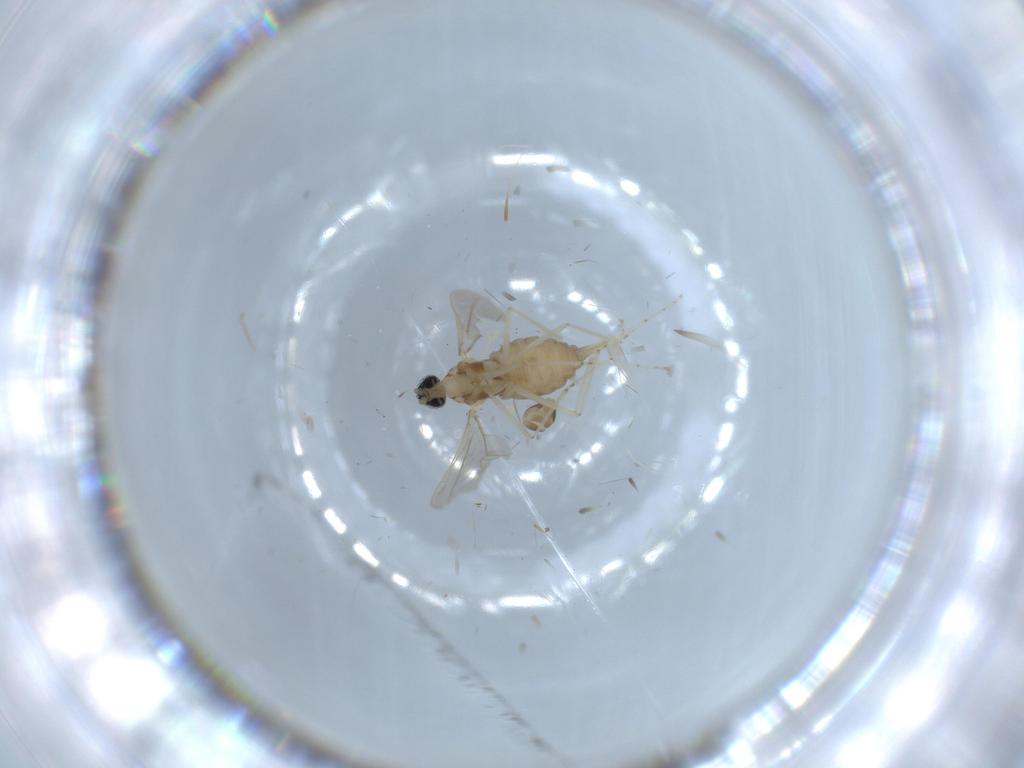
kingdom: Animalia
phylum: Arthropoda
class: Insecta
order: Diptera
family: Cecidomyiidae
